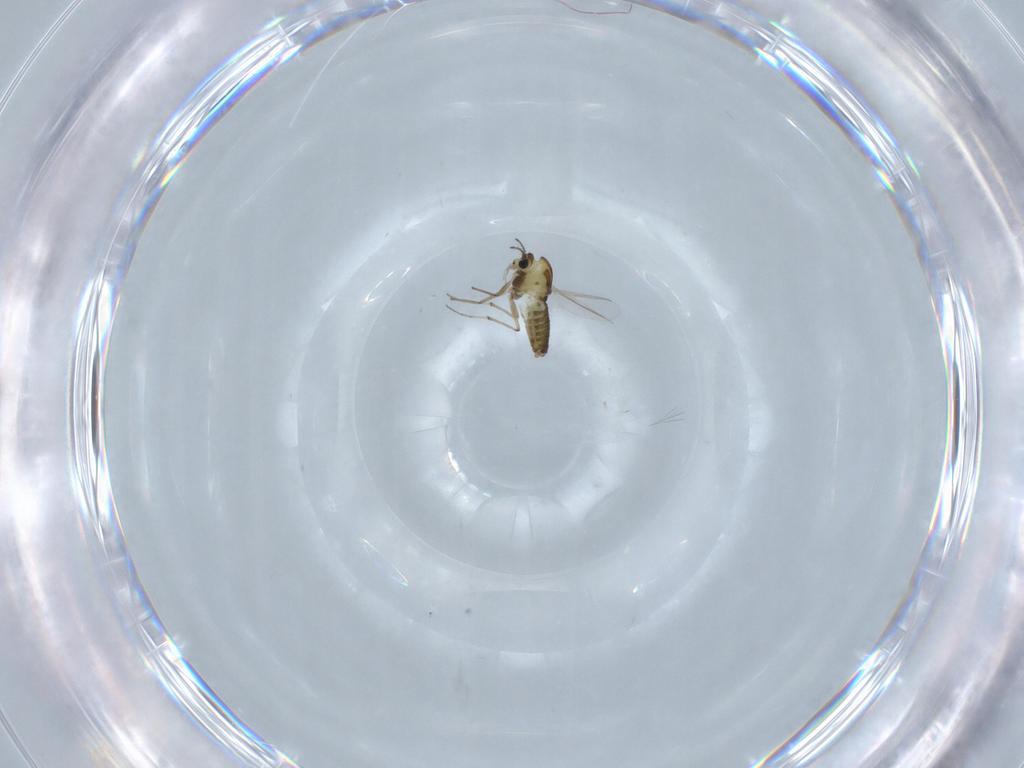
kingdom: Animalia
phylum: Arthropoda
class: Insecta
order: Diptera
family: Chironomidae
